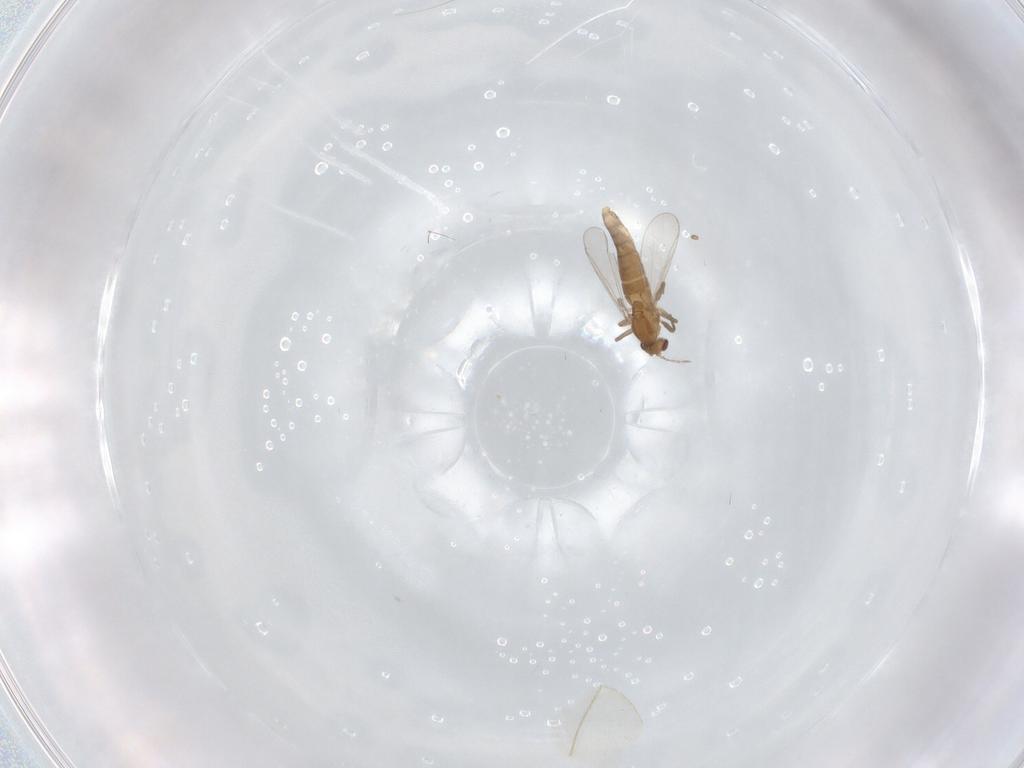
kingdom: Animalia
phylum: Arthropoda
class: Insecta
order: Diptera
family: Chironomidae
